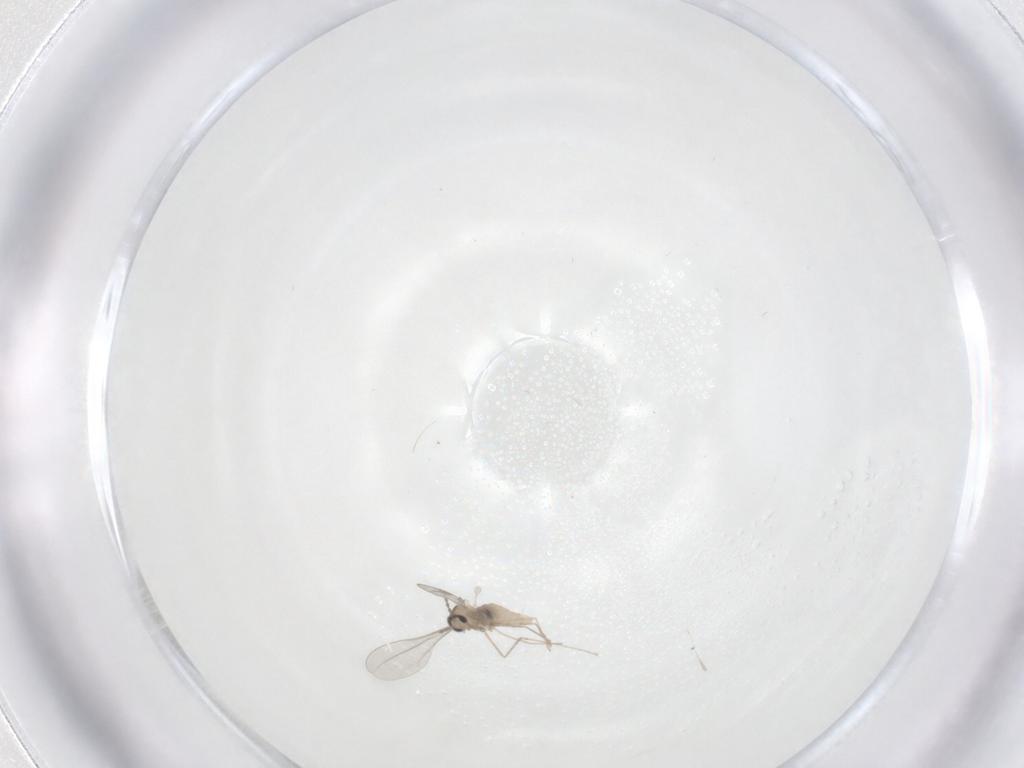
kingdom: Animalia
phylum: Arthropoda
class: Insecta
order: Diptera
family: Cecidomyiidae
